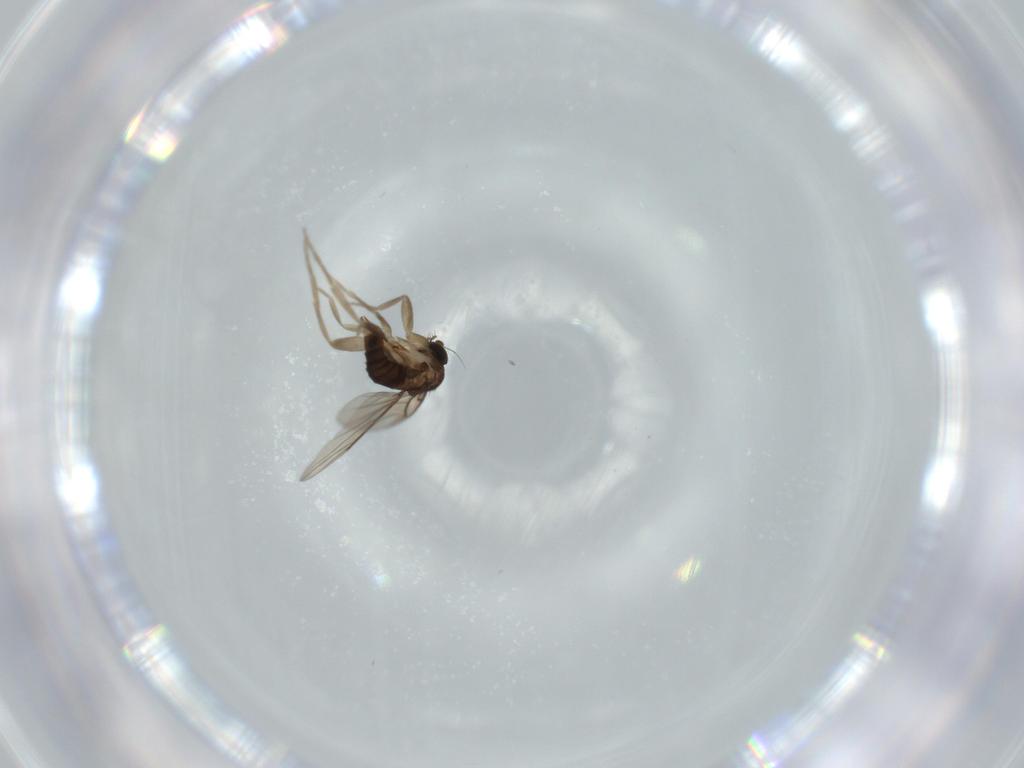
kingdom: Animalia
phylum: Arthropoda
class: Insecta
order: Diptera
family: Phoridae
